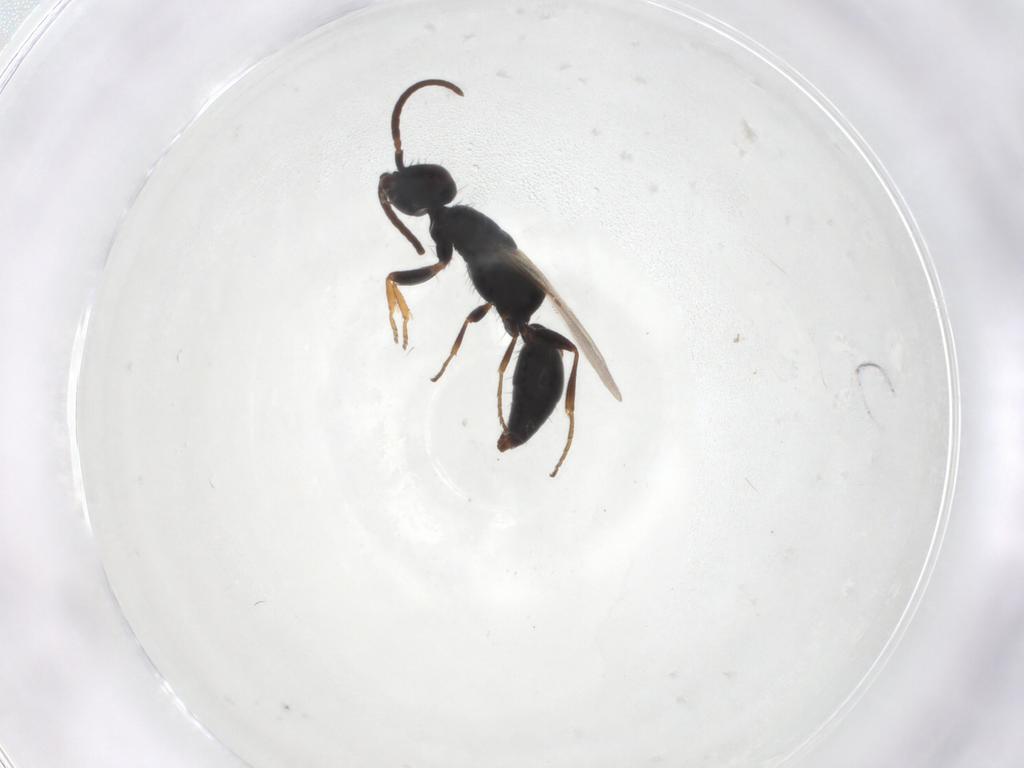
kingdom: Animalia
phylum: Arthropoda
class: Insecta
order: Hymenoptera
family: Bethylidae
